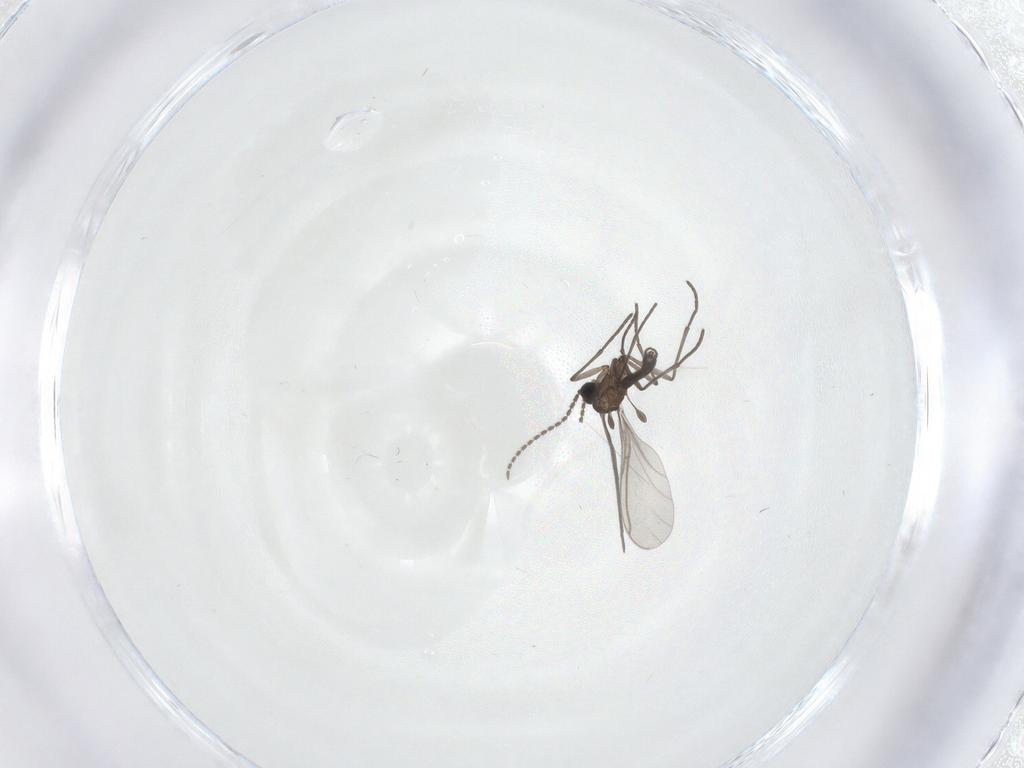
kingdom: Animalia
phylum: Arthropoda
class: Insecta
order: Diptera
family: Sciaridae
